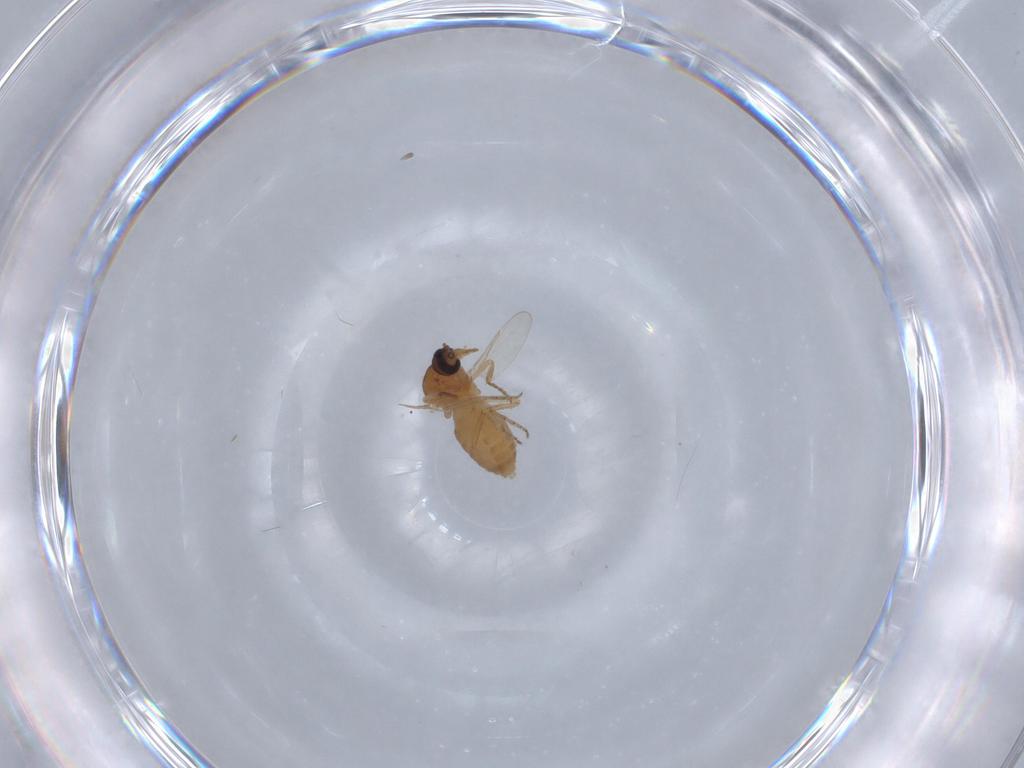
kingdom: Animalia
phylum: Arthropoda
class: Insecta
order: Diptera
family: Ceratopogonidae
